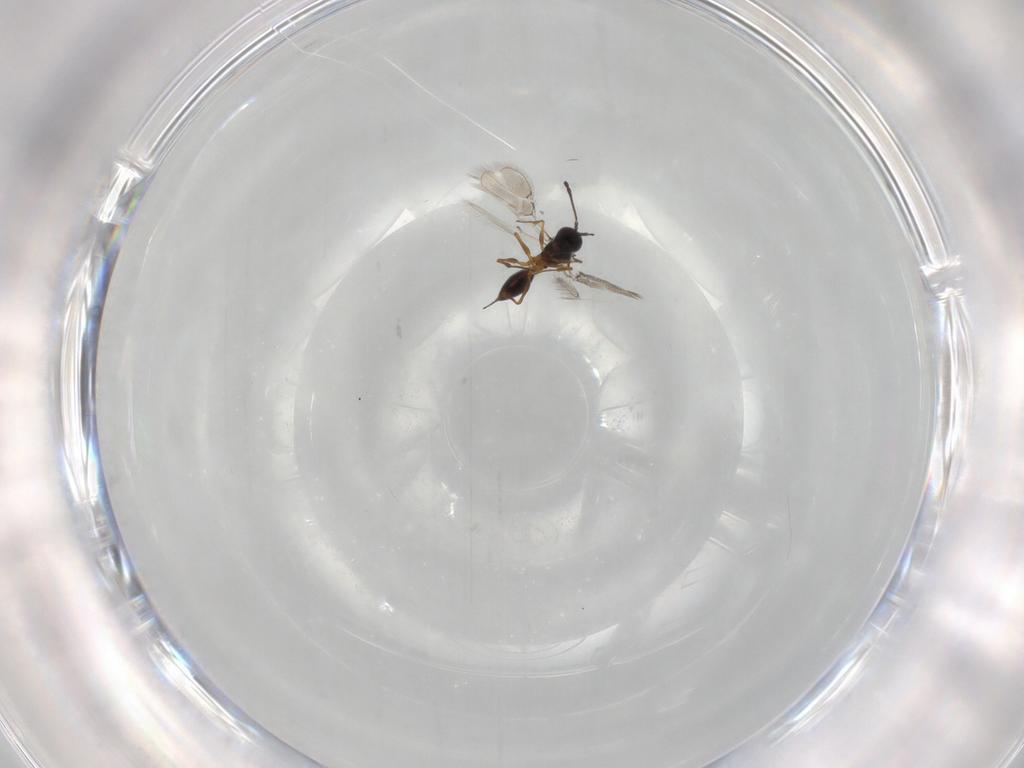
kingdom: Animalia
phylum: Arthropoda
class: Insecta
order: Hymenoptera
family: Figitidae
